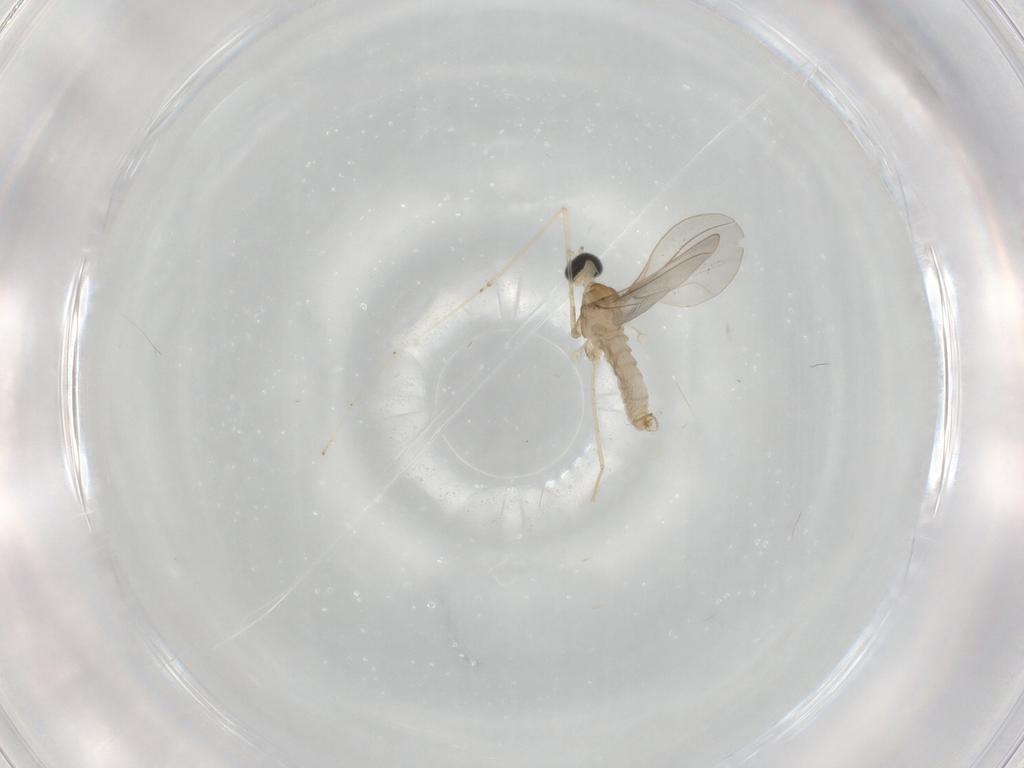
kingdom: Animalia
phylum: Arthropoda
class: Insecta
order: Diptera
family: Cecidomyiidae
